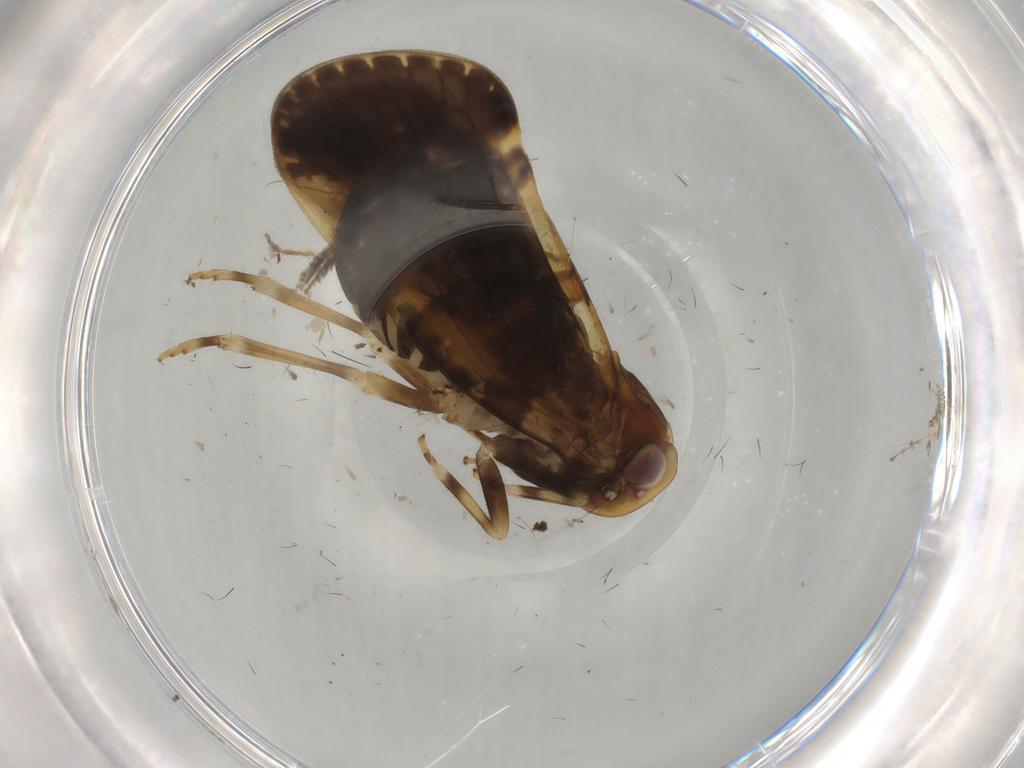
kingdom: Animalia
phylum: Arthropoda
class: Insecta
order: Hemiptera
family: Cixiidae
